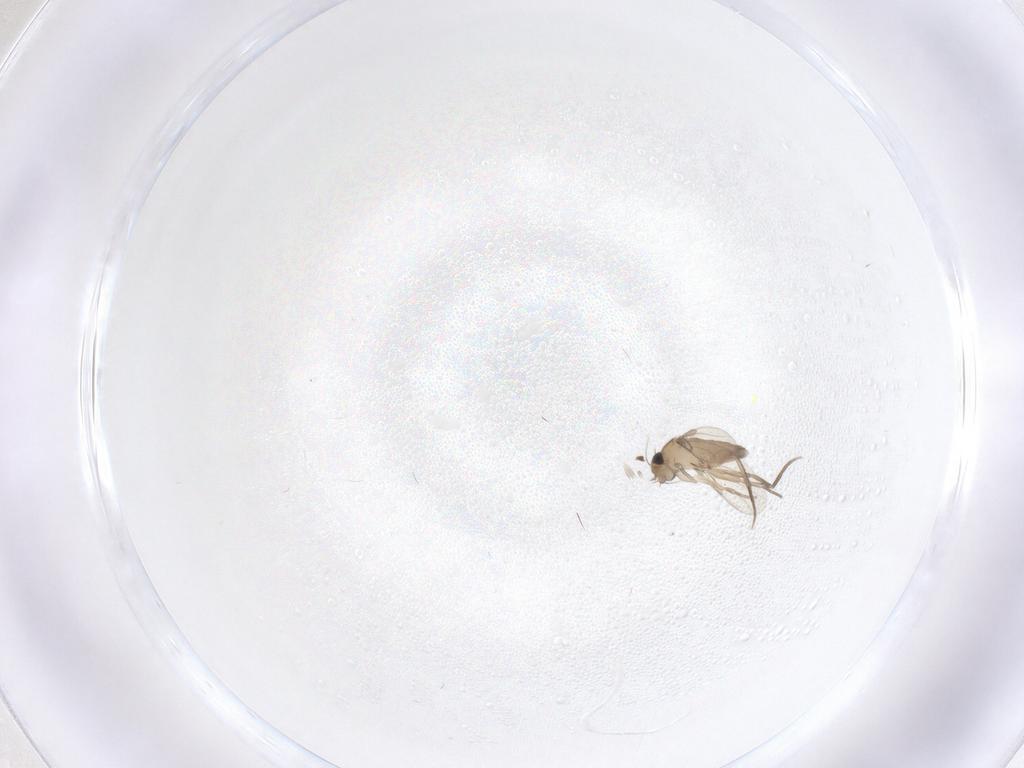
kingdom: Animalia
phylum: Arthropoda
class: Insecta
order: Diptera
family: Phoridae
